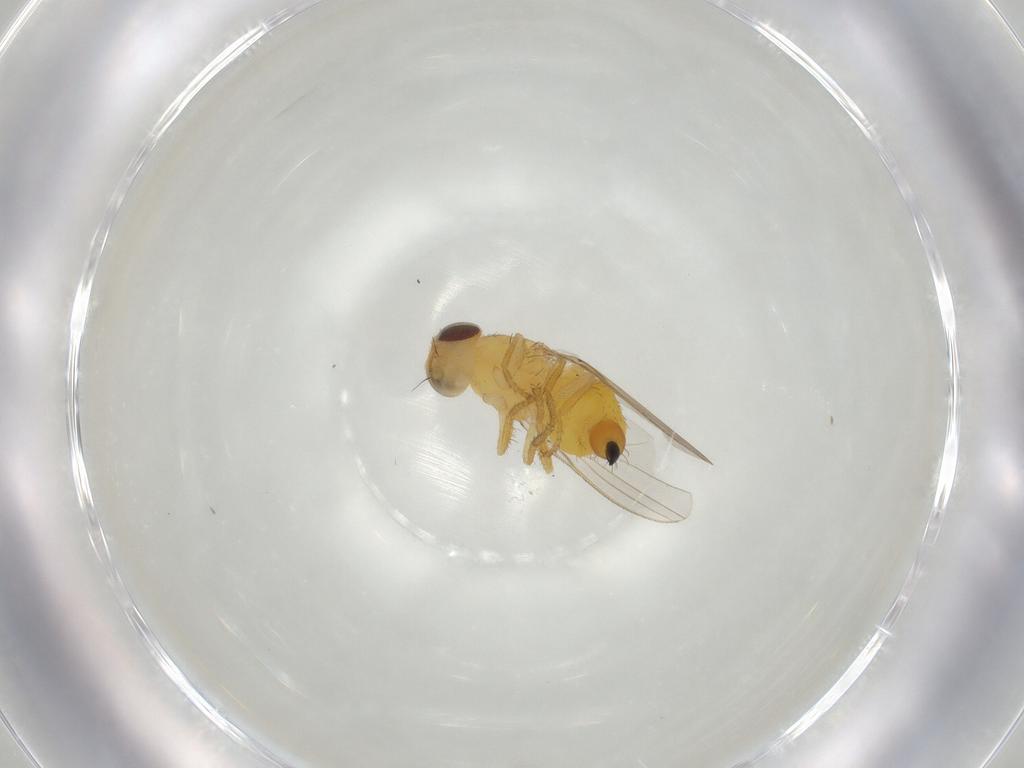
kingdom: Animalia
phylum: Arthropoda
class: Insecta
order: Diptera
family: Fergusoninidae
